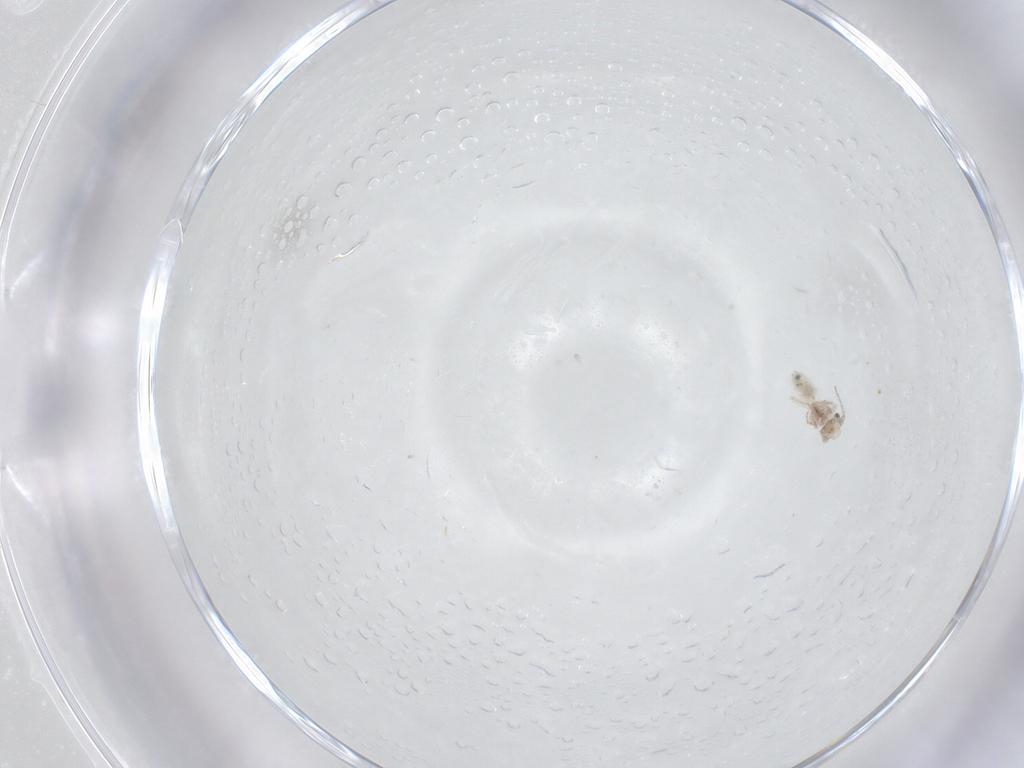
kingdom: Animalia
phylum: Arthropoda
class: Insecta
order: Psocodea
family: Lepidopsocidae
